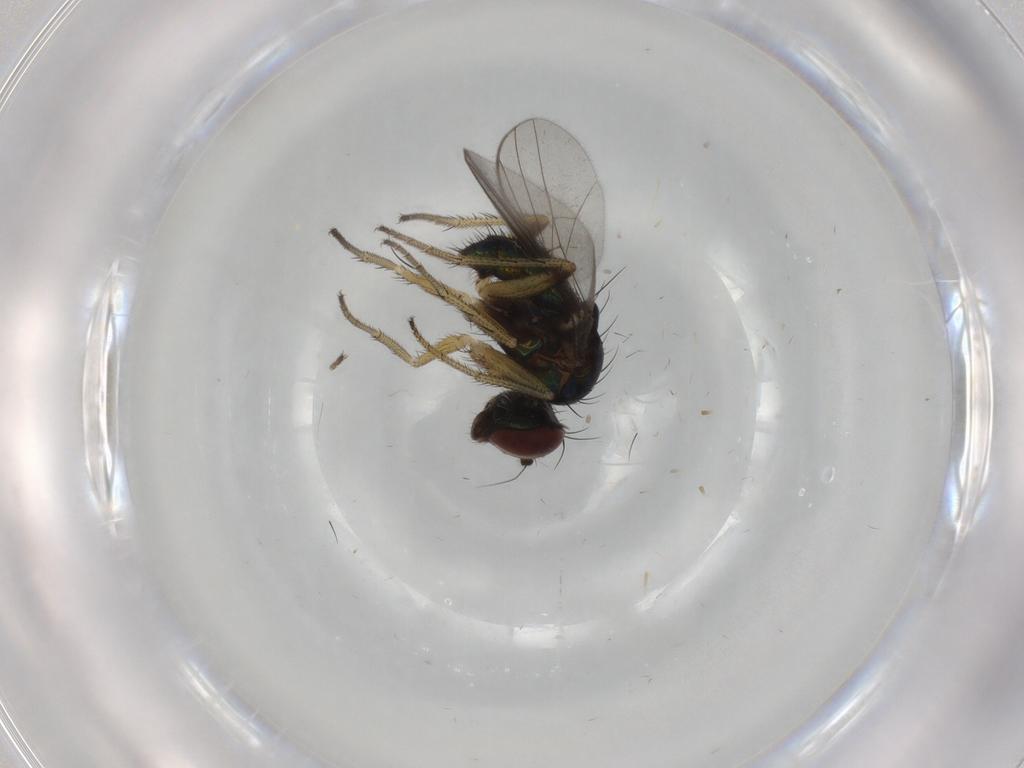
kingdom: Animalia
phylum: Arthropoda
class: Insecta
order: Diptera
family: Dolichopodidae
